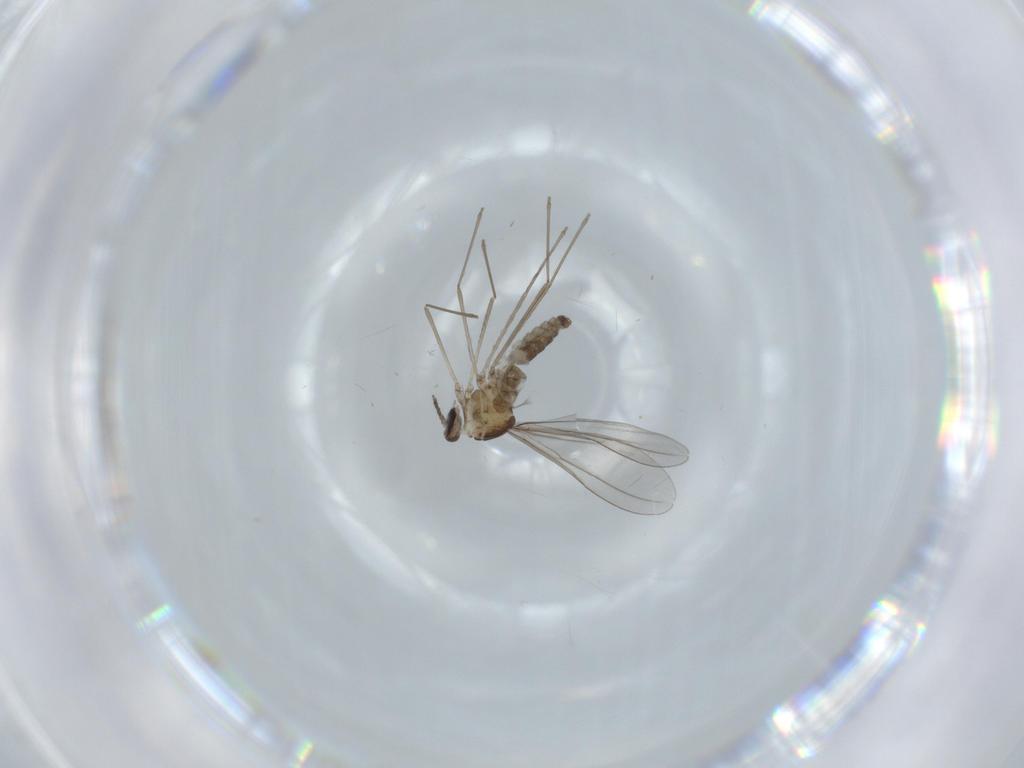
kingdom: Animalia
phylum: Arthropoda
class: Insecta
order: Diptera
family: Cecidomyiidae
